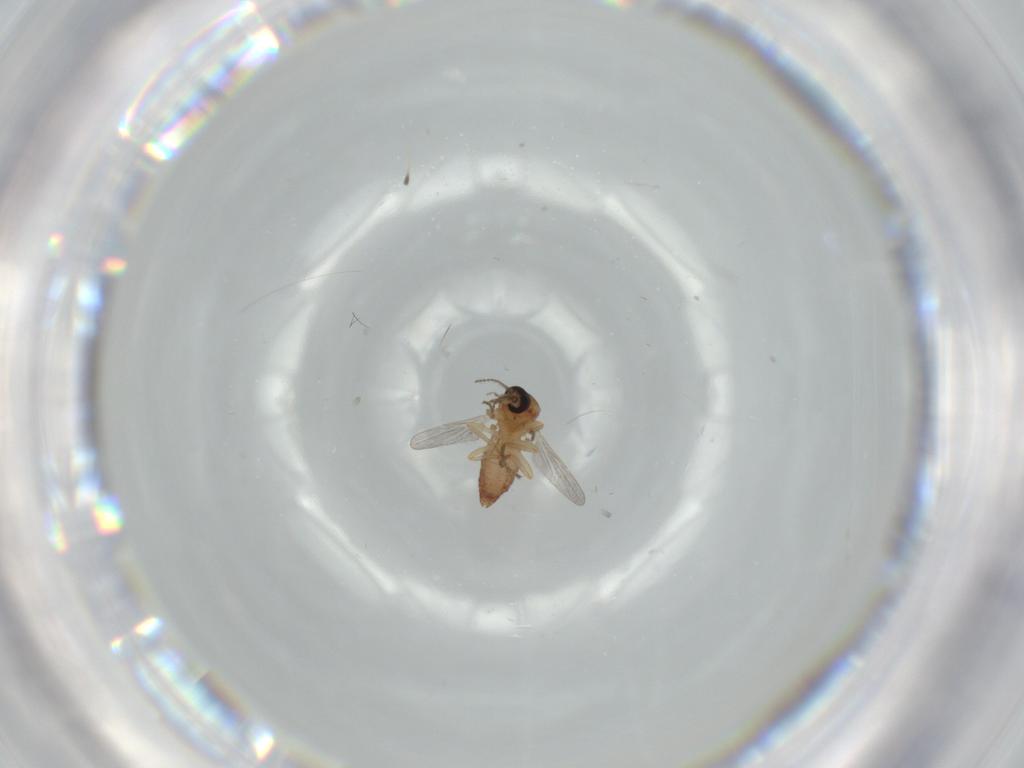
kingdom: Animalia
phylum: Arthropoda
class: Insecta
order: Diptera
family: Ceratopogonidae
